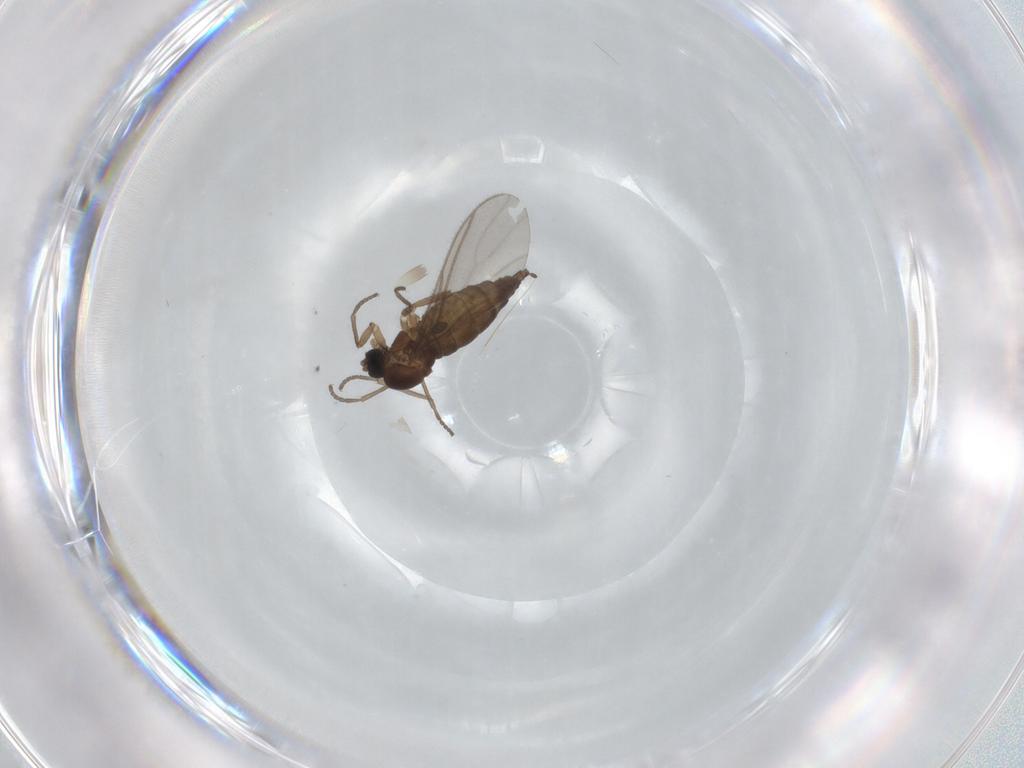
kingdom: Animalia
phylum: Arthropoda
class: Insecta
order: Diptera
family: Sciaridae
